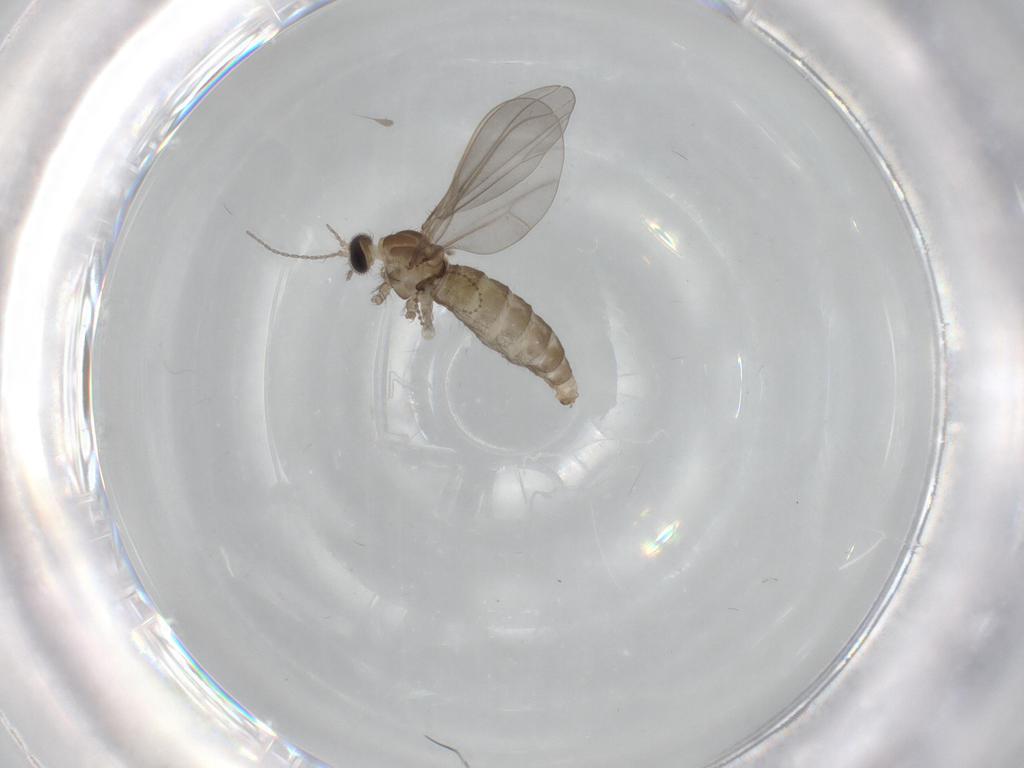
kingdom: Animalia
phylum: Arthropoda
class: Insecta
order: Diptera
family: Cecidomyiidae
